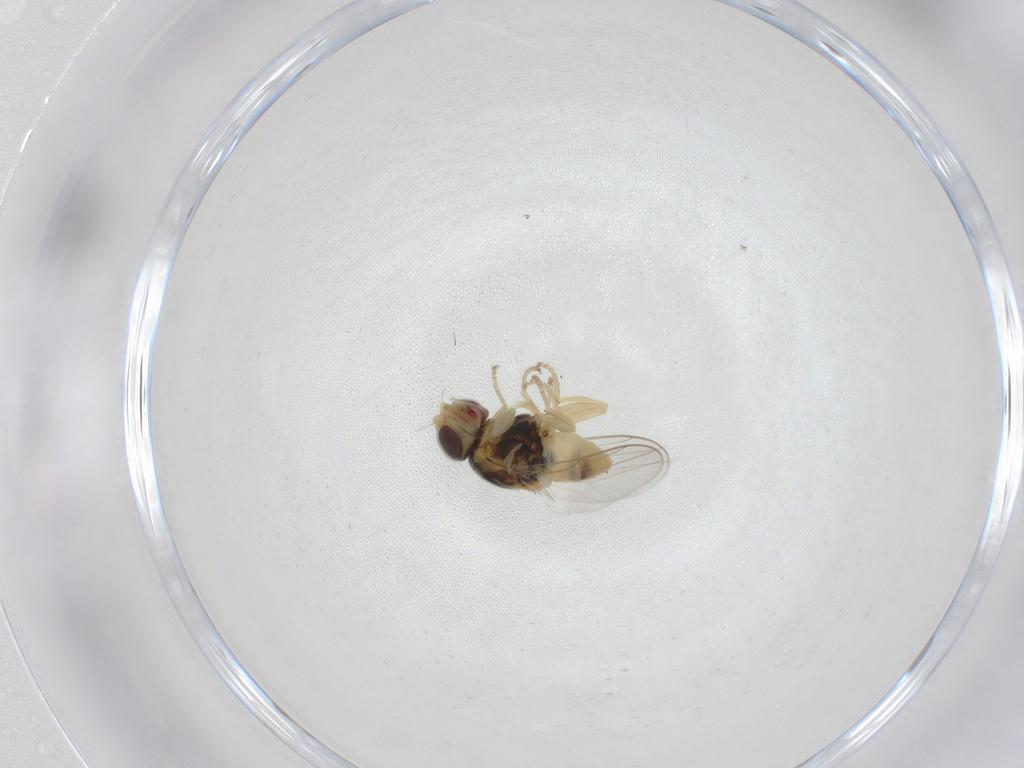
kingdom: Animalia
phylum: Arthropoda
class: Insecta
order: Diptera
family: Chloropidae
